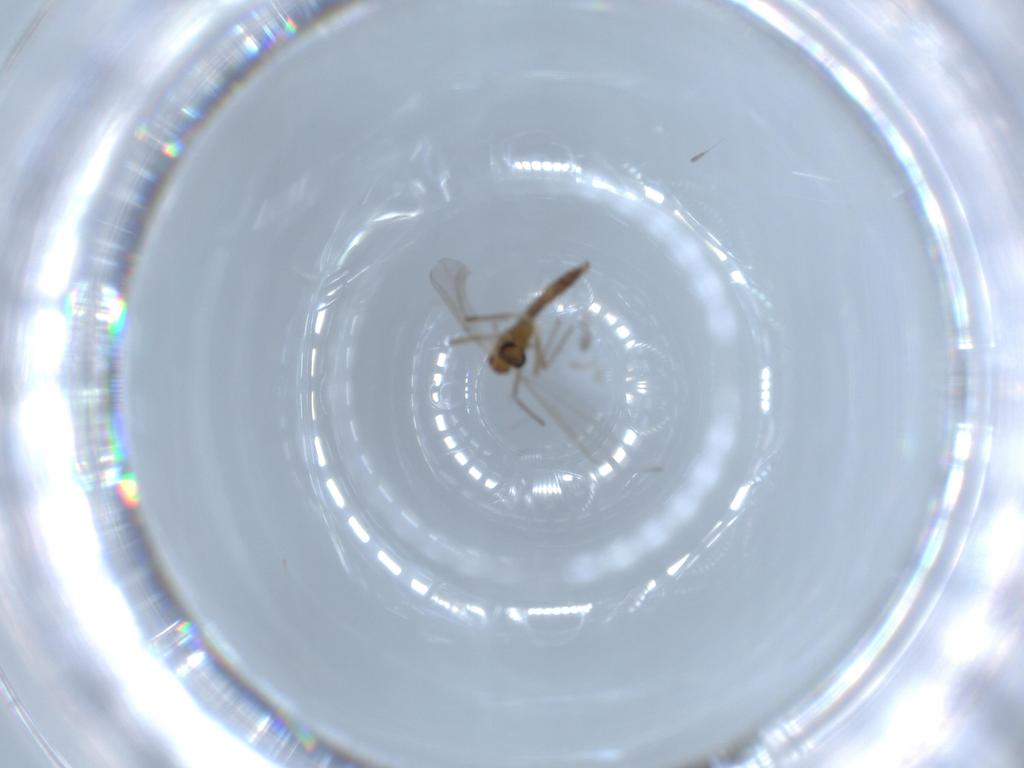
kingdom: Animalia
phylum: Arthropoda
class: Insecta
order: Diptera
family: Chironomidae
